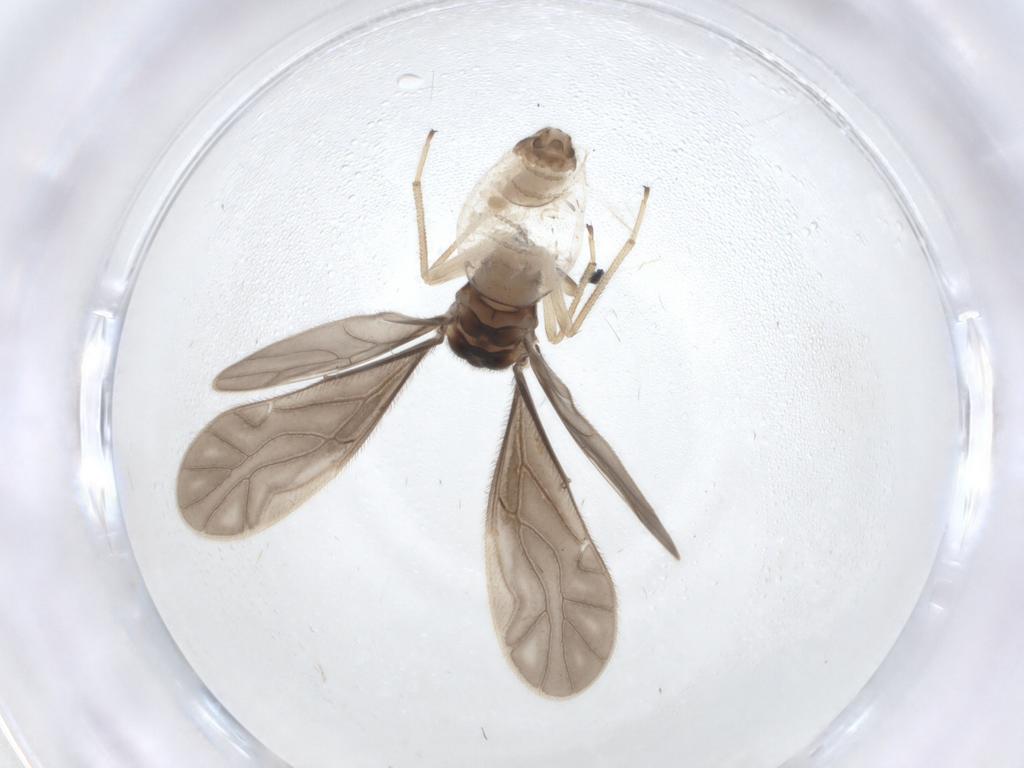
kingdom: Animalia
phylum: Arthropoda
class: Insecta
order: Psocodea
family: Caeciliusidae
